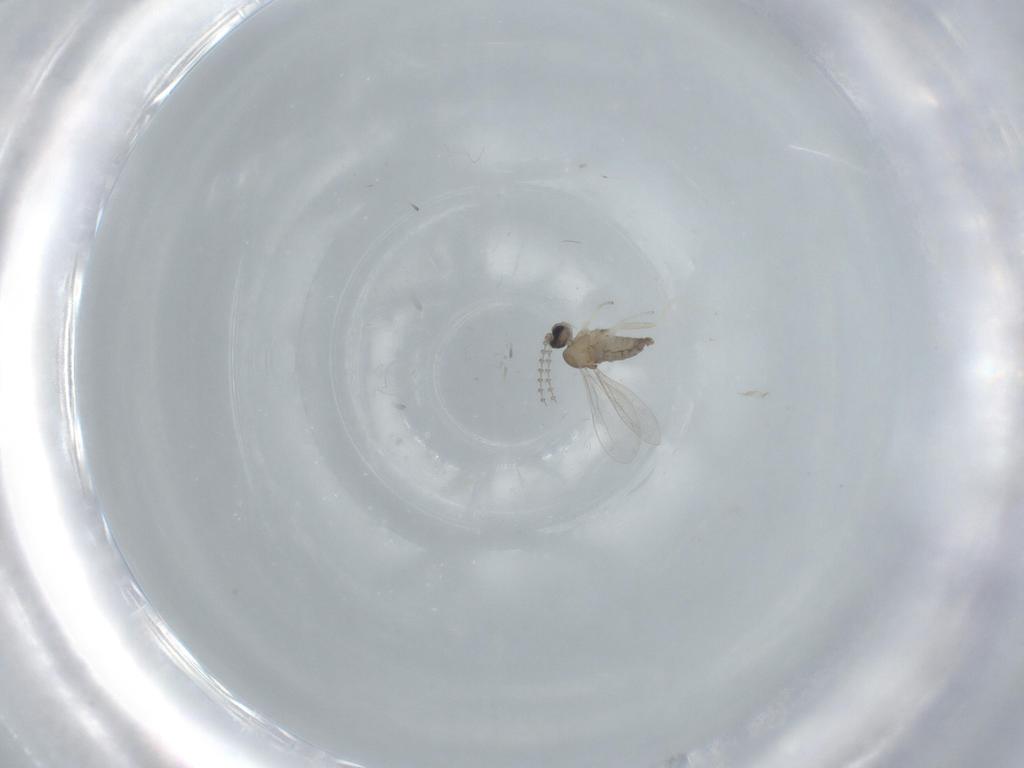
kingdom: Animalia
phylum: Arthropoda
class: Insecta
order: Diptera
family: Cecidomyiidae
